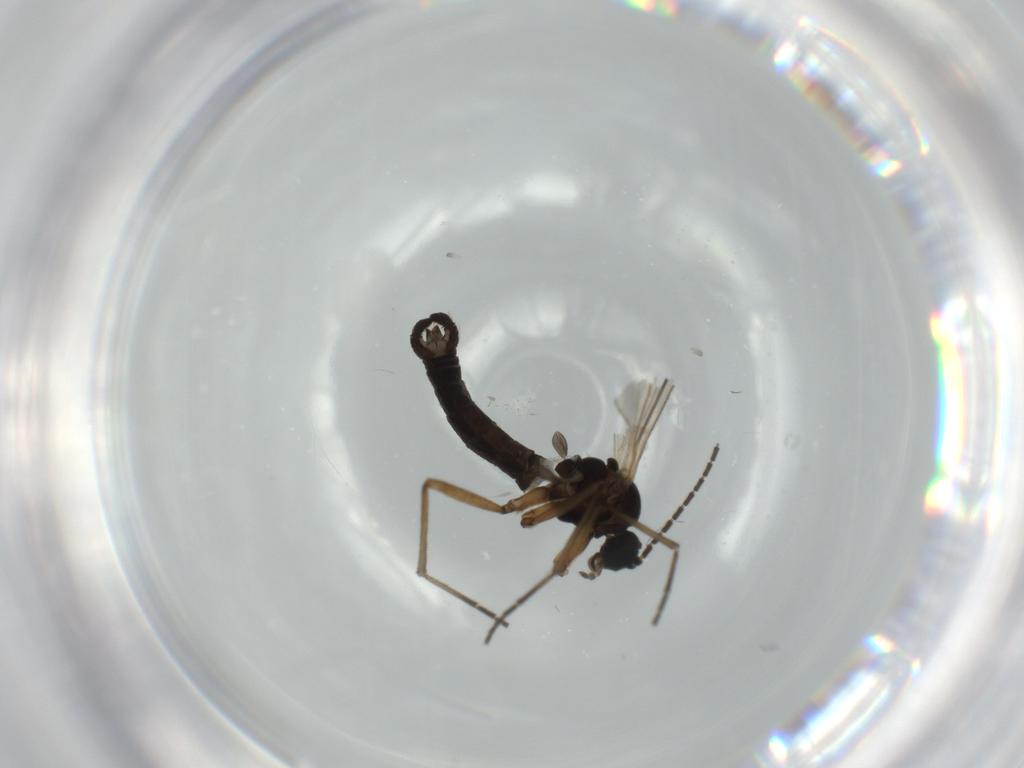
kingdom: Animalia
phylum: Arthropoda
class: Insecta
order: Diptera
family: Sciaridae
